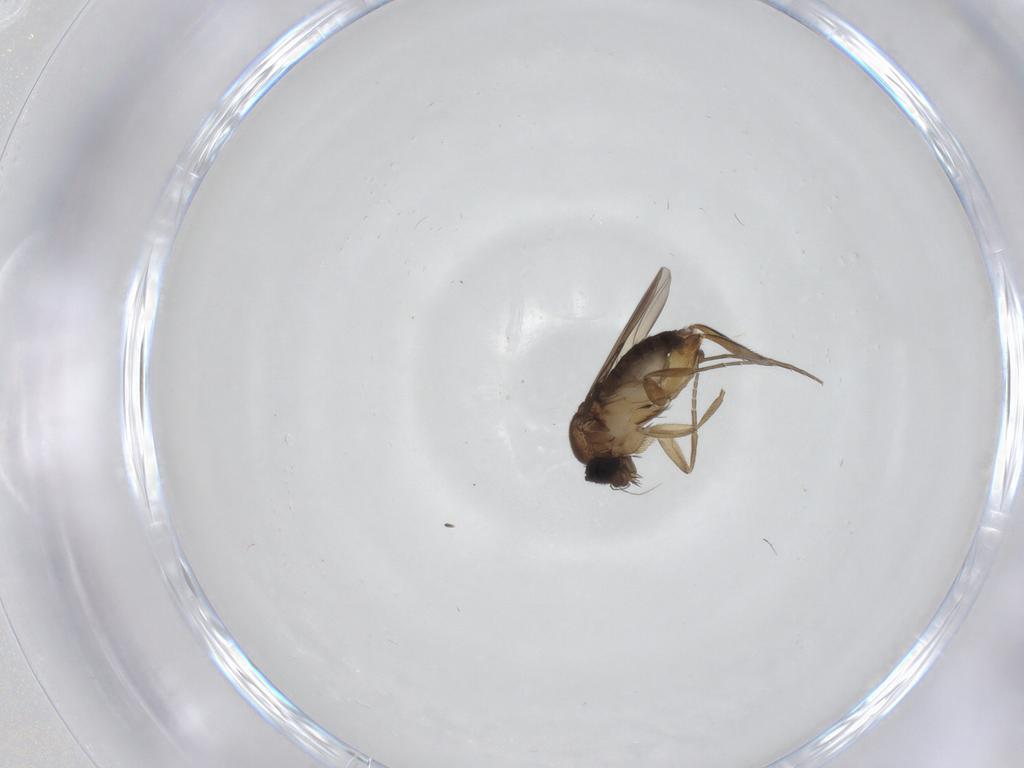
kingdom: Animalia
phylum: Arthropoda
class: Insecta
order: Diptera
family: Phoridae
